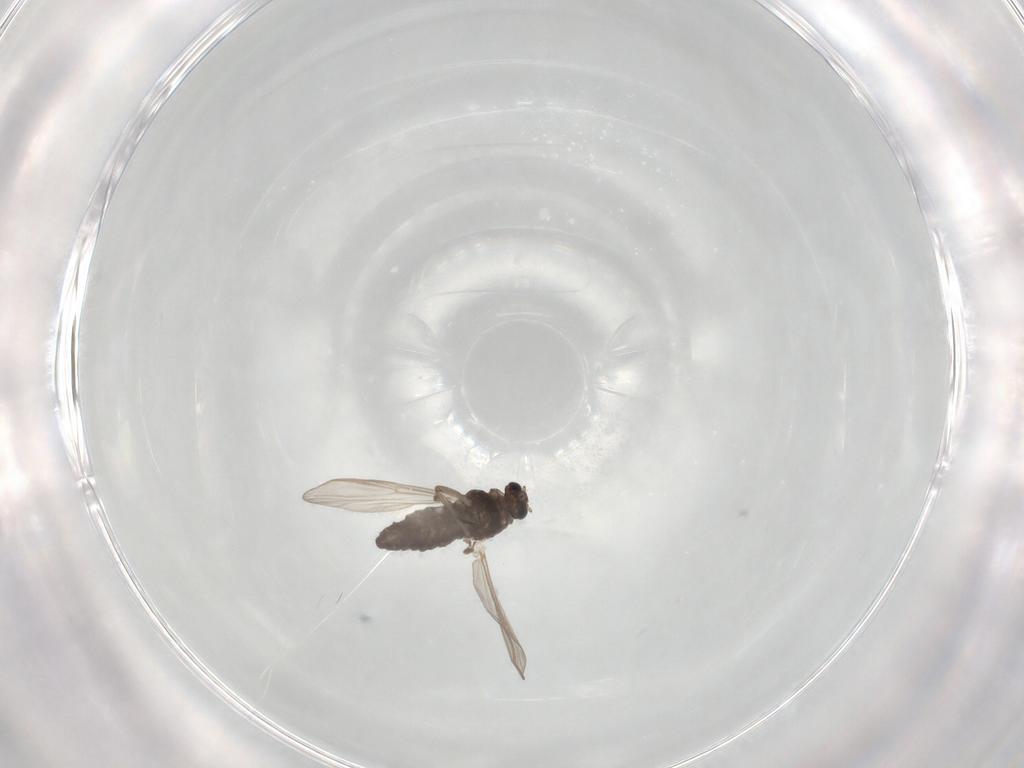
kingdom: Animalia
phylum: Arthropoda
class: Insecta
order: Diptera
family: Chironomidae
